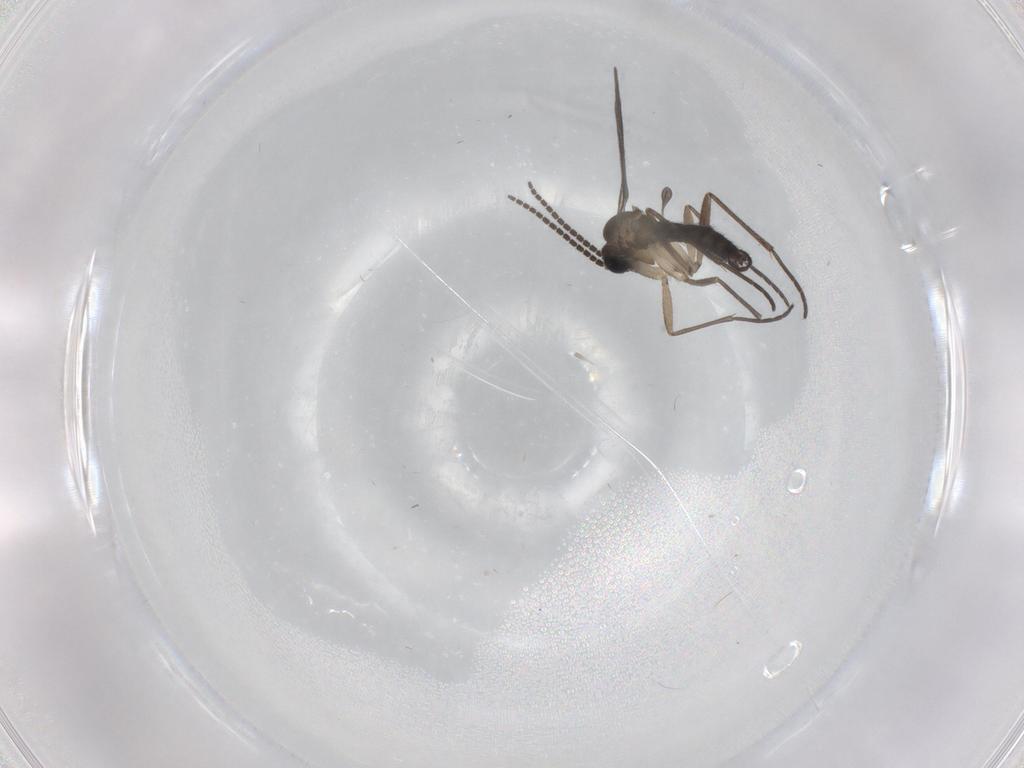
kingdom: Animalia
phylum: Arthropoda
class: Insecta
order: Diptera
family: Sciaridae
